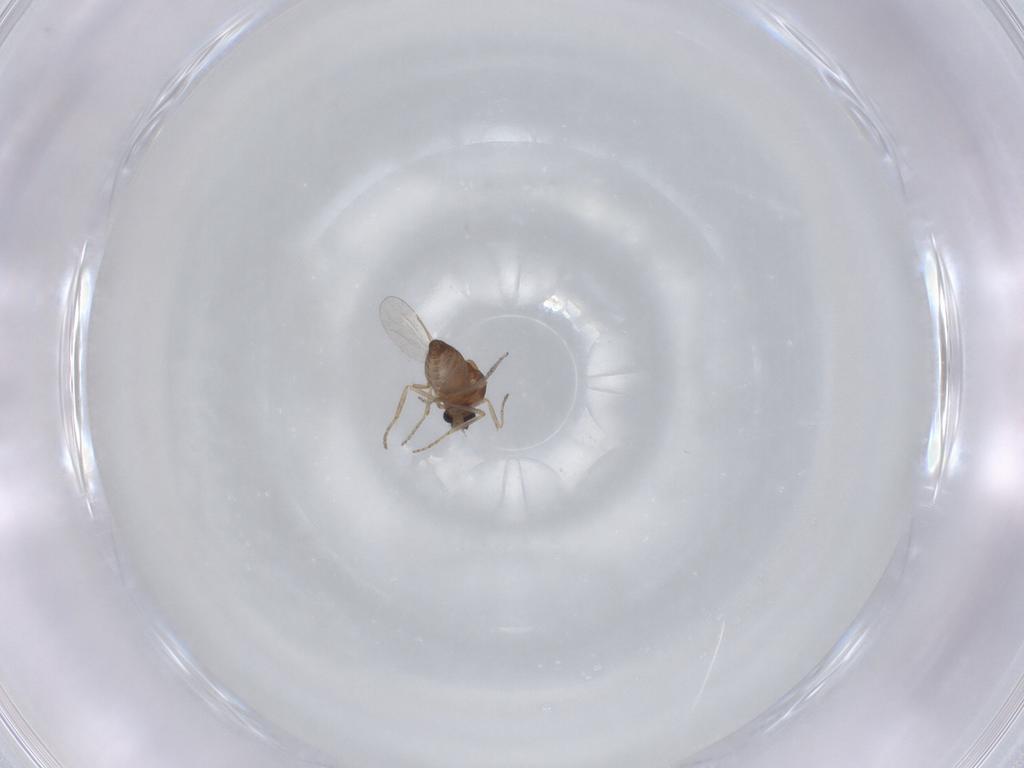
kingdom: Animalia
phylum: Arthropoda
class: Insecta
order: Diptera
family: Ceratopogonidae
